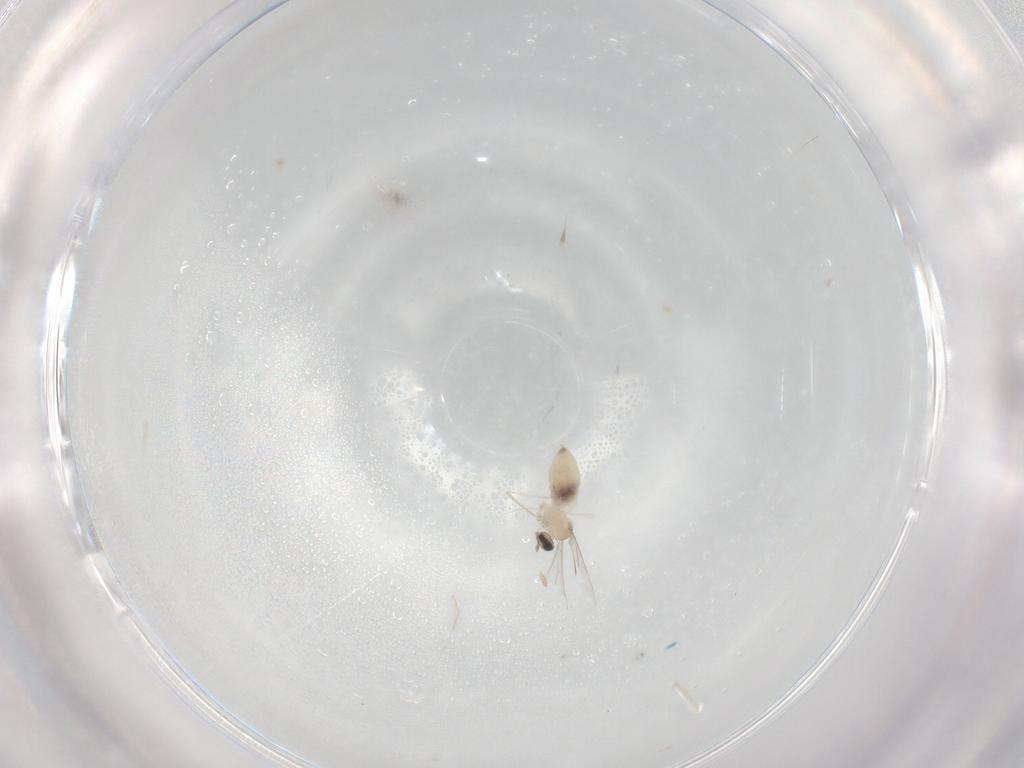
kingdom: Animalia
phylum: Arthropoda
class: Insecta
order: Diptera
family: Cecidomyiidae
